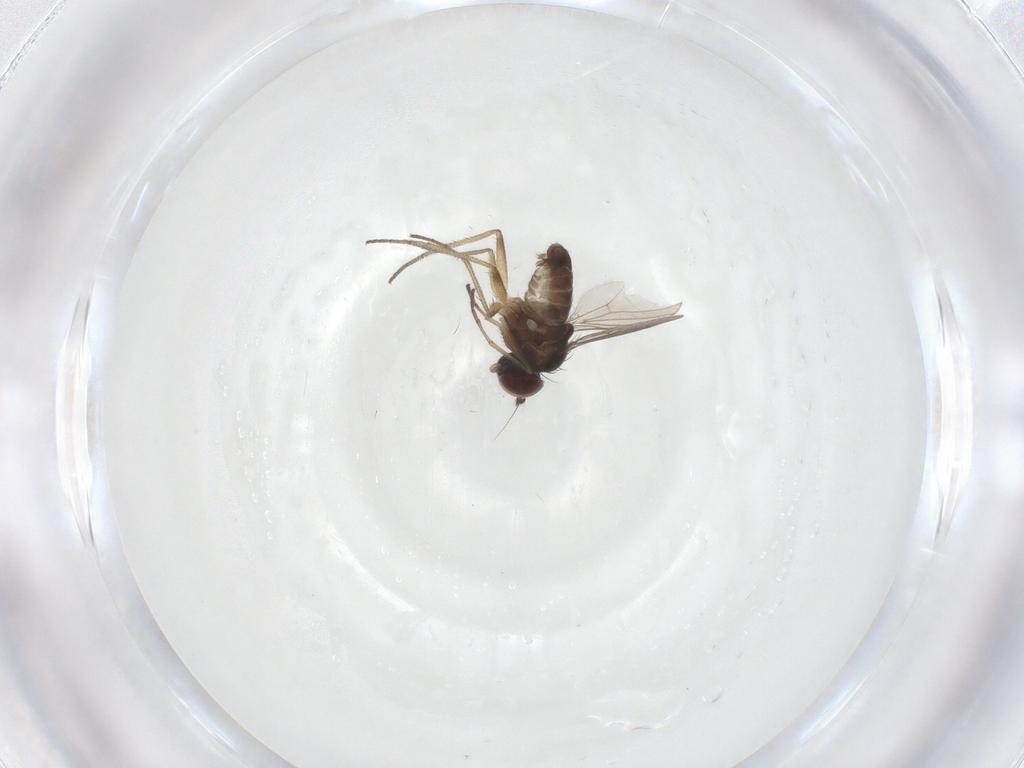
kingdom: Animalia
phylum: Arthropoda
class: Insecta
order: Diptera
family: Dolichopodidae
